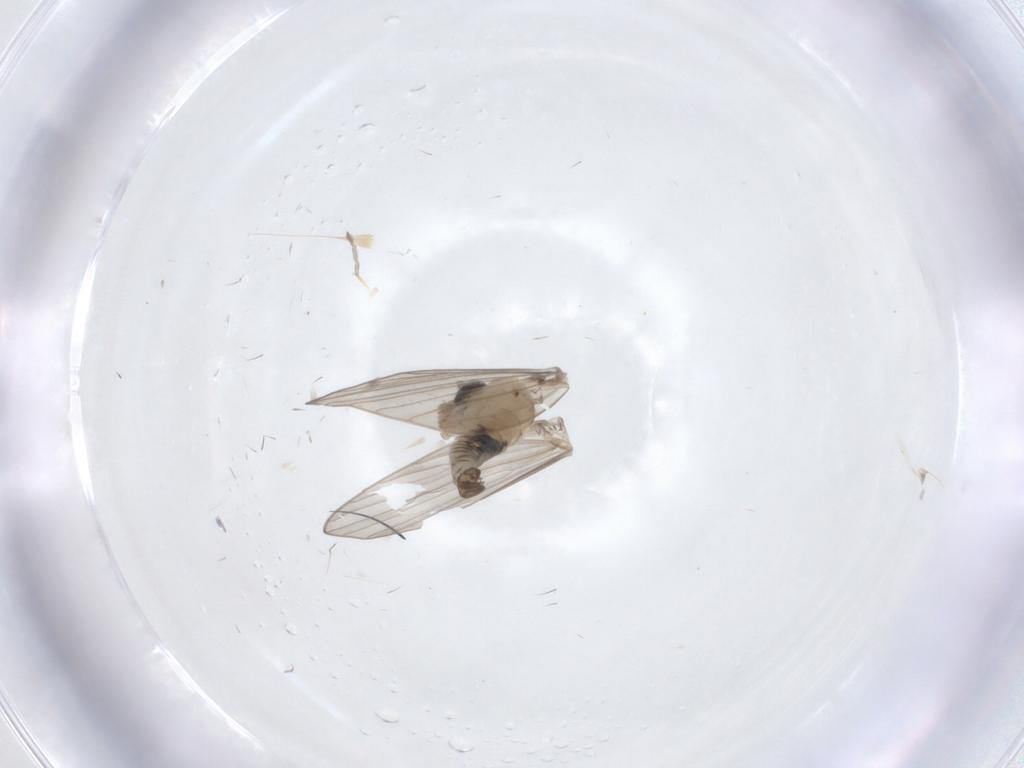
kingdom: Animalia
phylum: Arthropoda
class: Insecta
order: Diptera
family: Psychodidae
